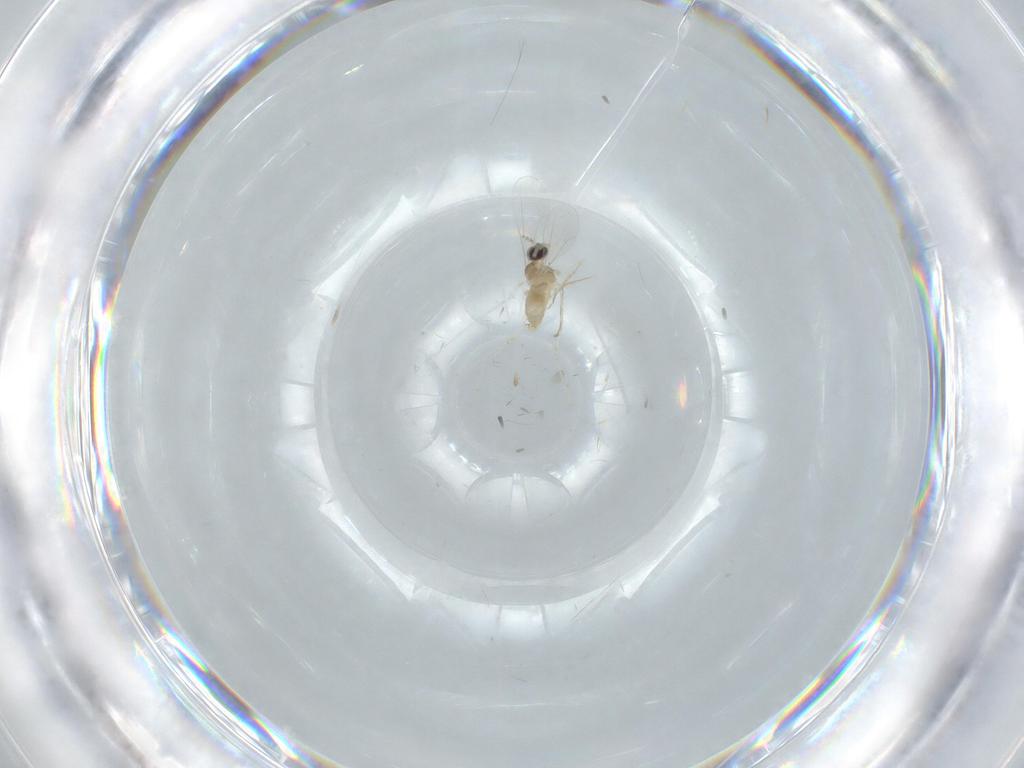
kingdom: Animalia
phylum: Arthropoda
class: Insecta
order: Diptera
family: Cecidomyiidae
